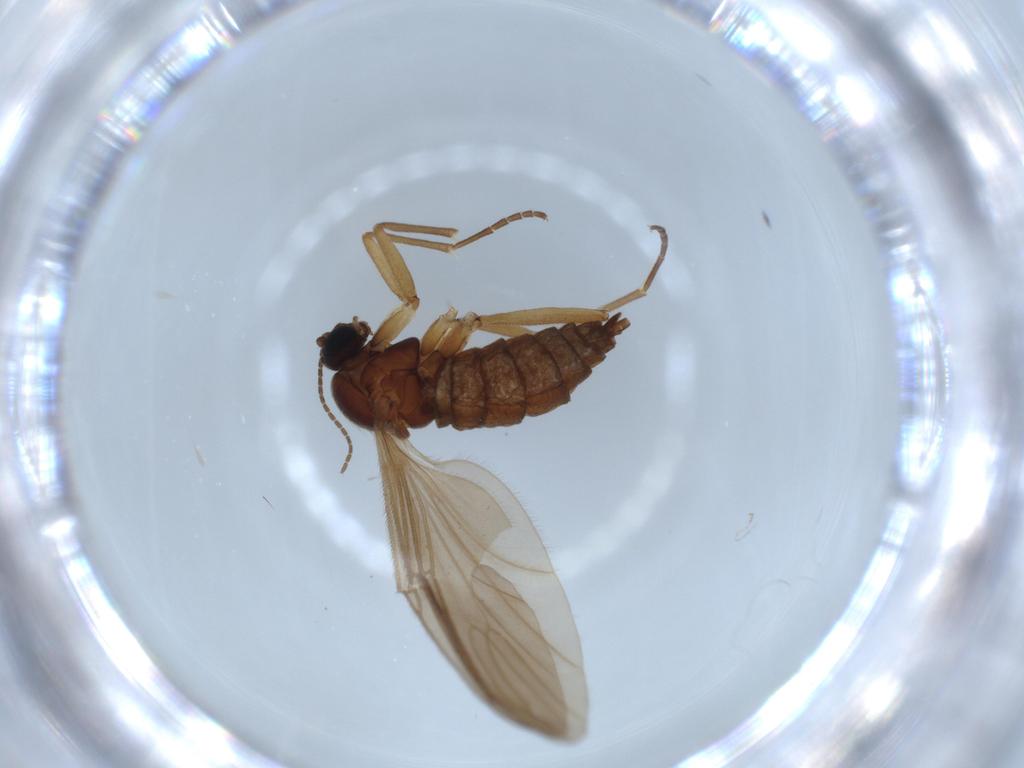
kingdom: Animalia
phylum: Arthropoda
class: Insecta
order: Diptera
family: Sciaridae
